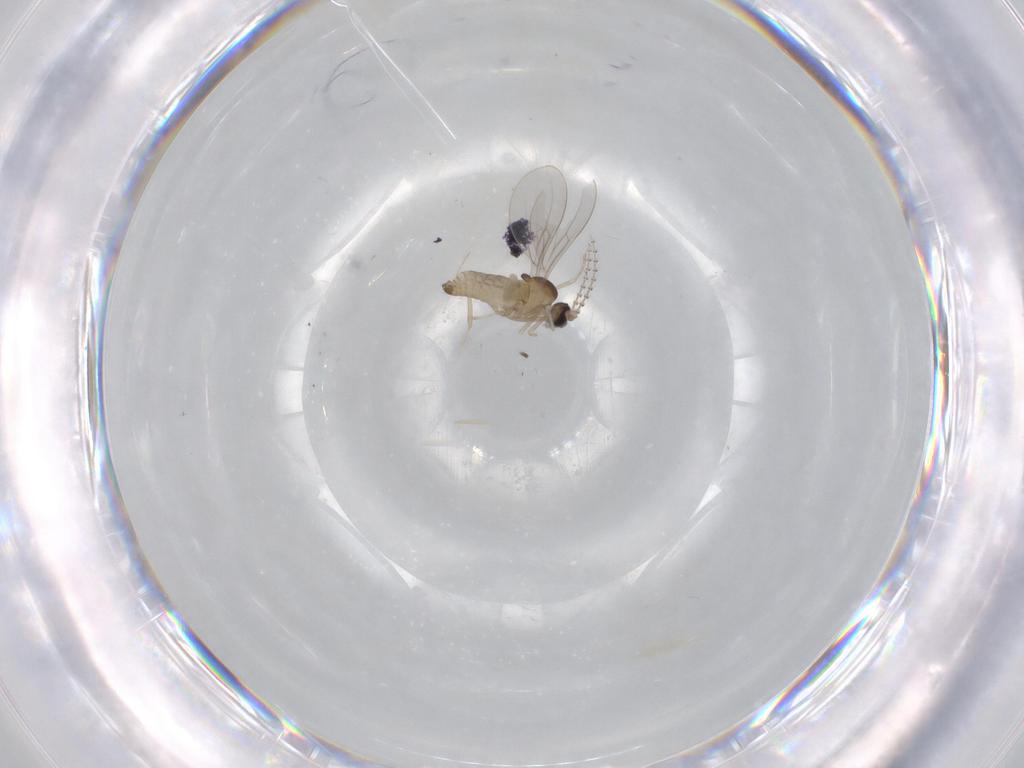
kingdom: Animalia
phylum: Arthropoda
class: Insecta
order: Diptera
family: Cecidomyiidae
